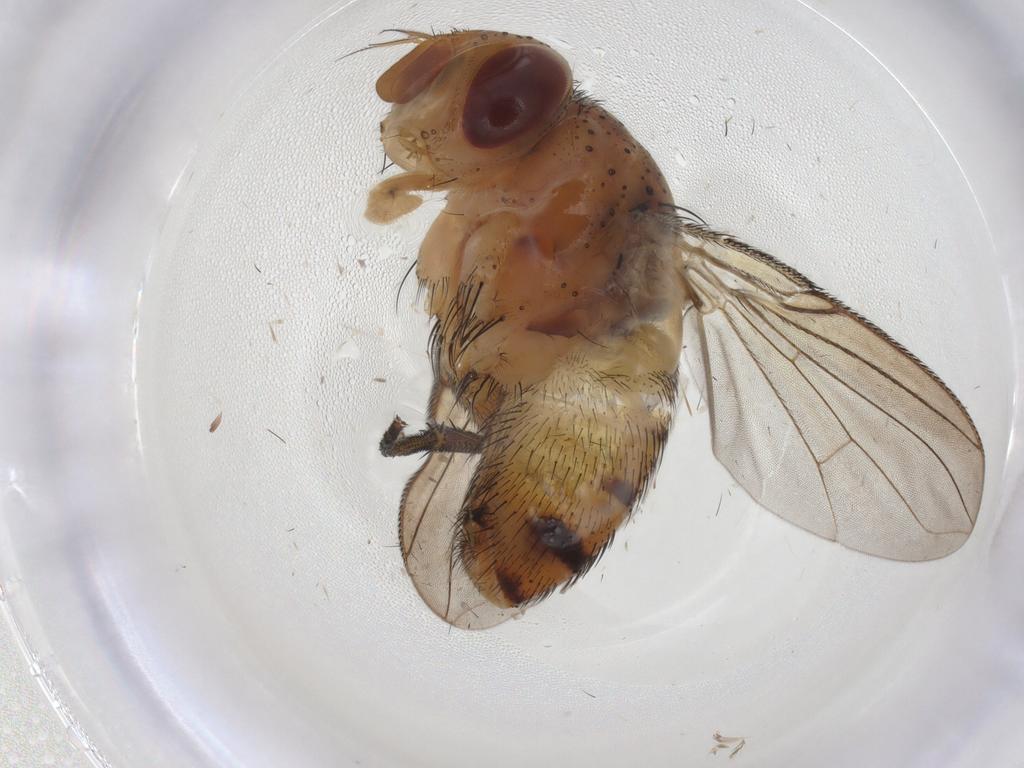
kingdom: Animalia
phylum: Arthropoda
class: Insecta
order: Diptera
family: Tachinidae
